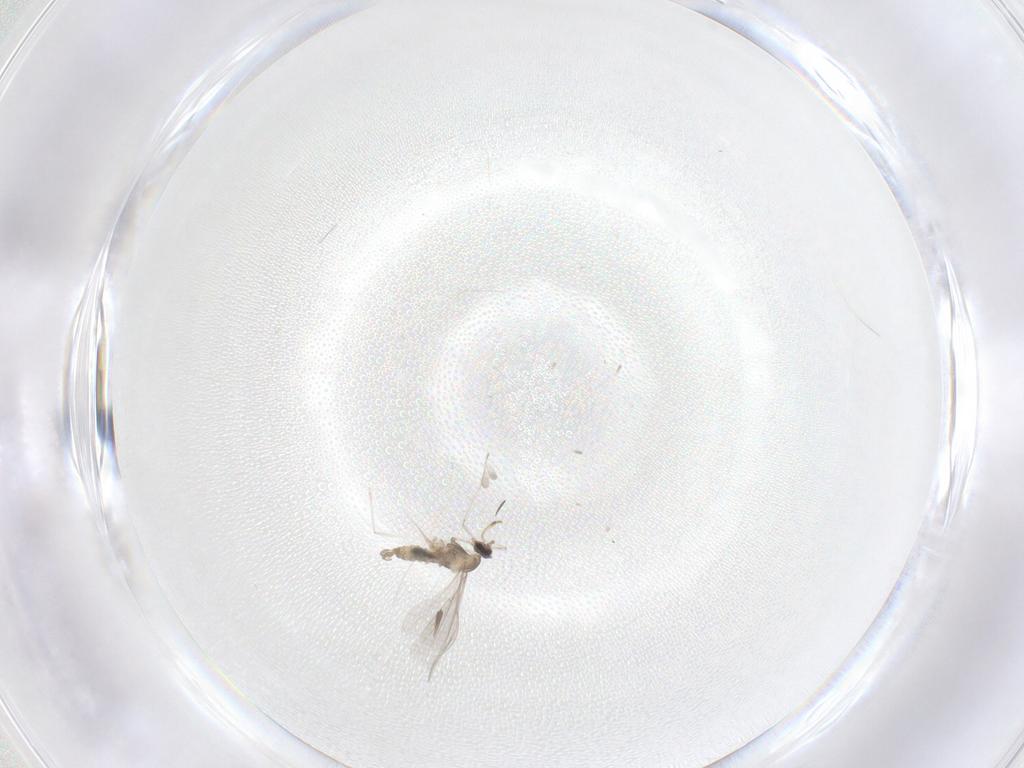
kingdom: Animalia
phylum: Arthropoda
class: Insecta
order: Diptera
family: Cecidomyiidae
